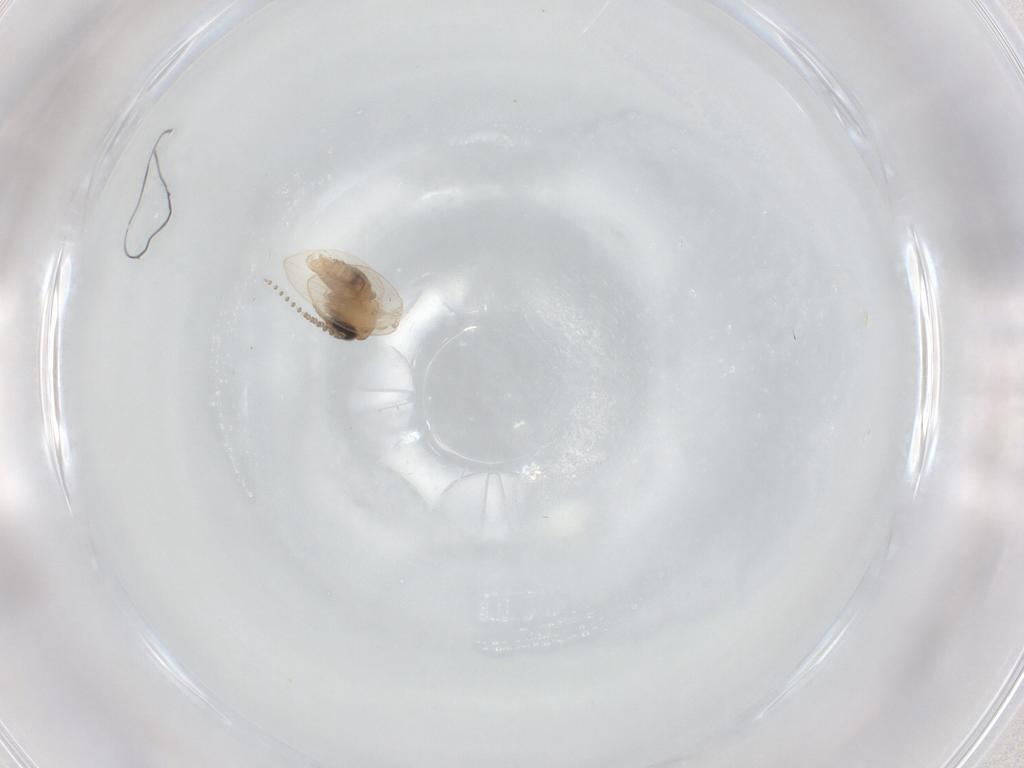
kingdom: Animalia
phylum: Arthropoda
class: Insecta
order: Diptera
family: Psychodidae
